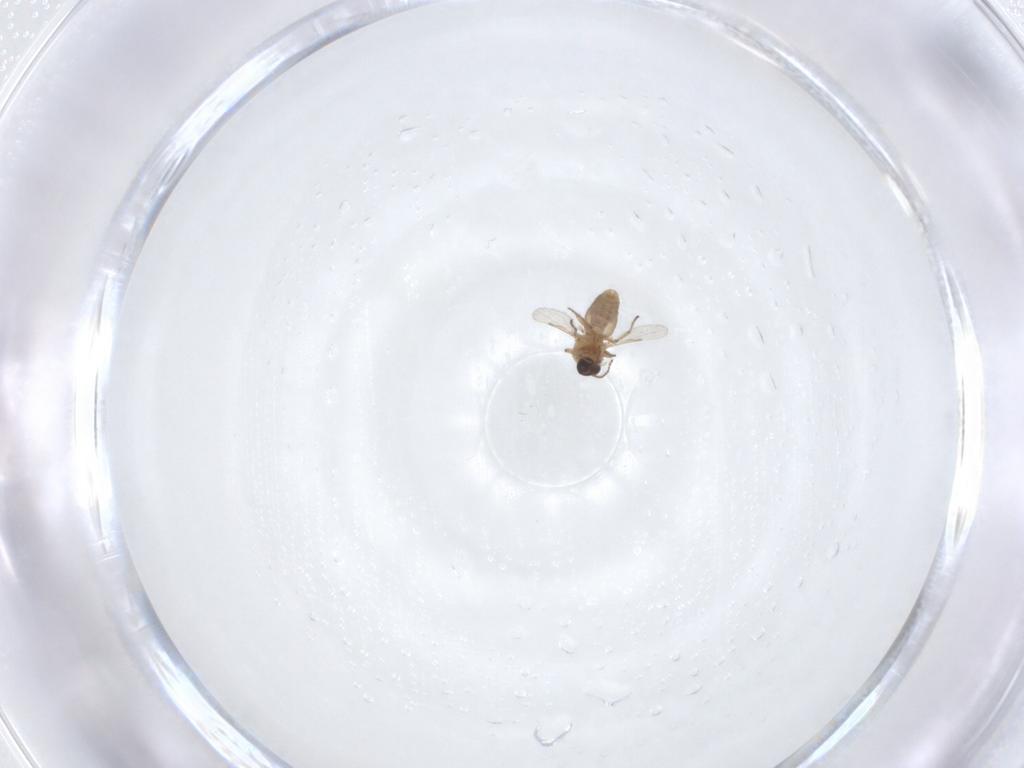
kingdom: Animalia
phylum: Arthropoda
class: Insecta
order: Diptera
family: Ceratopogonidae
